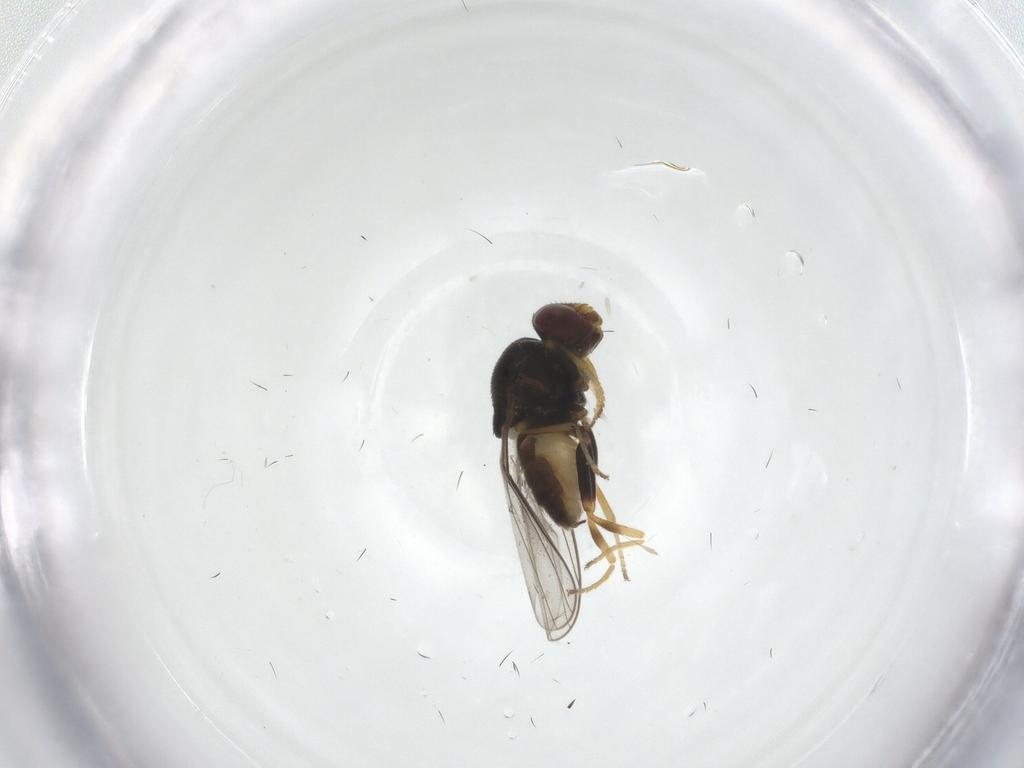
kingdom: Animalia
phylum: Arthropoda
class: Insecta
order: Diptera
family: Chloropidae
